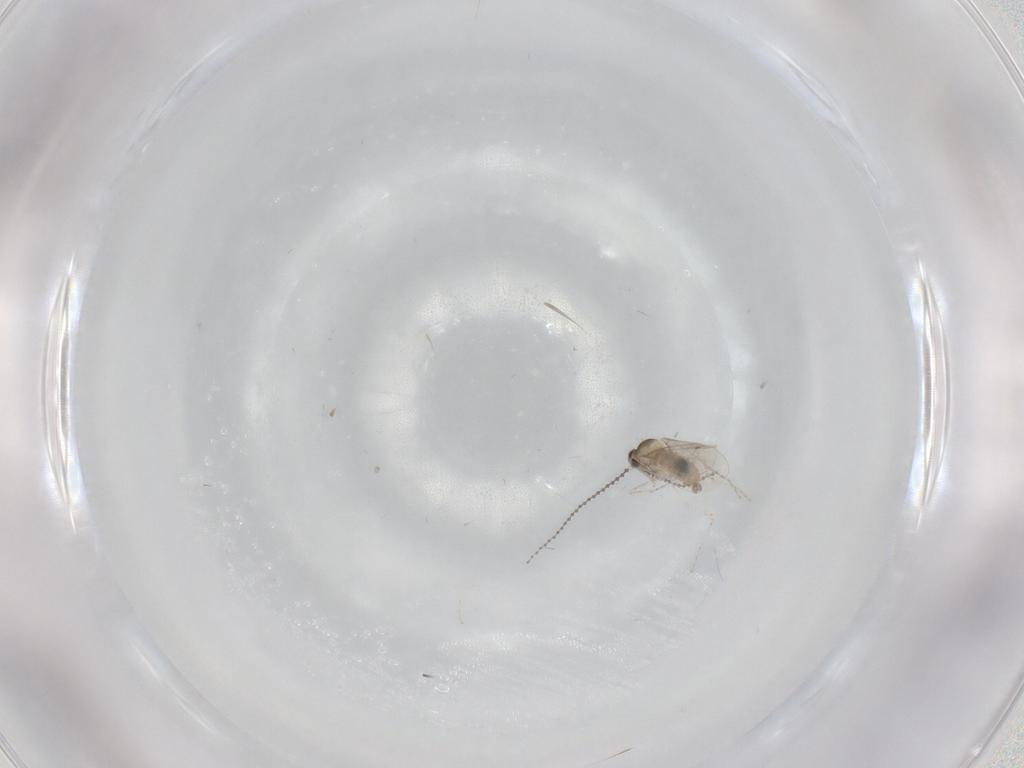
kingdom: Animalia
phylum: Arthropoda
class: Insecta
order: Diptera
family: Cecidomyiidae
